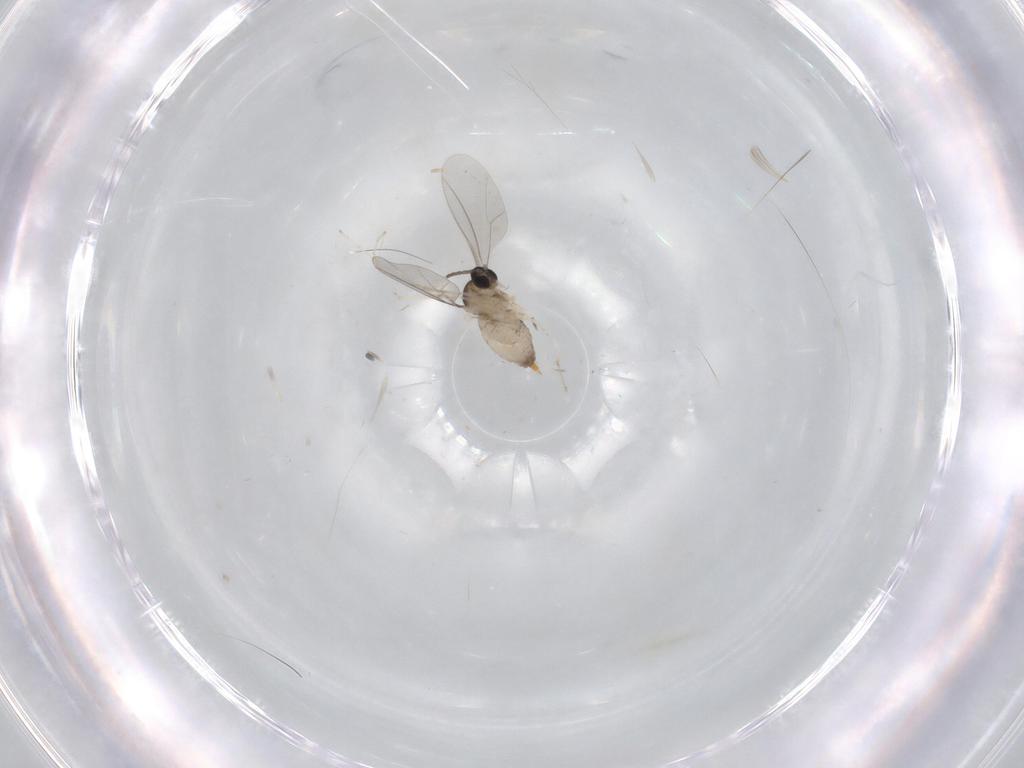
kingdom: Animalia
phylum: Arthropoda
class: Insecta
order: Diptera
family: Cecidomyiidae
